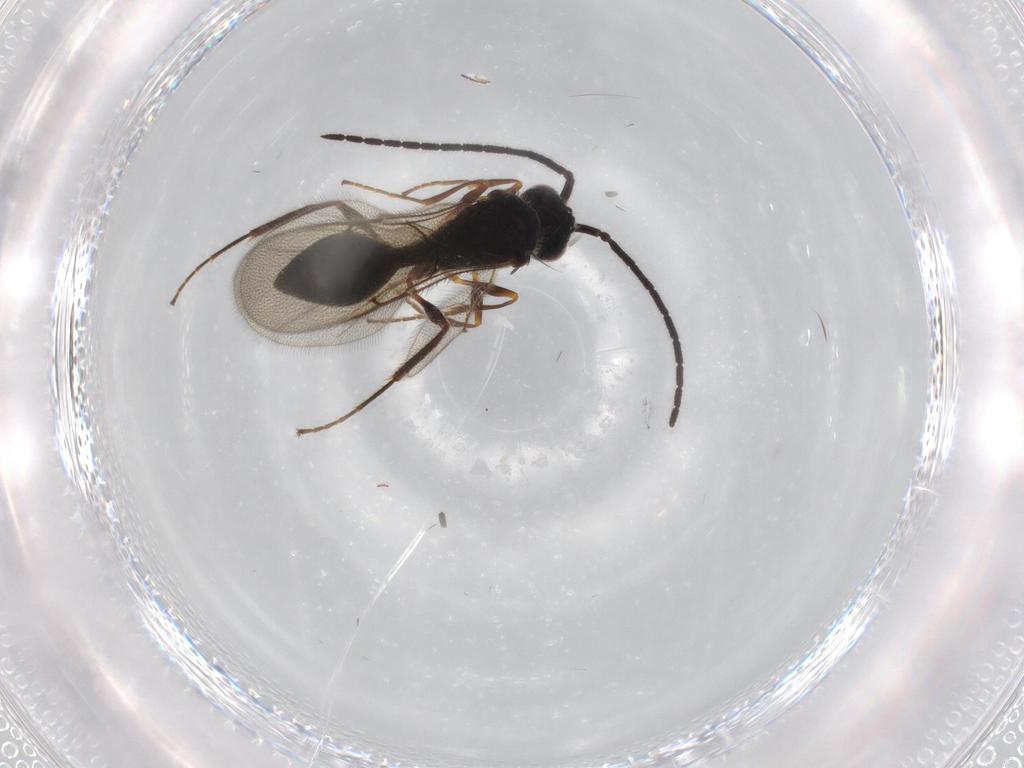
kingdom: Animalia
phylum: Arthropoda
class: Insecta
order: Hymenoptera
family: Figitidae
